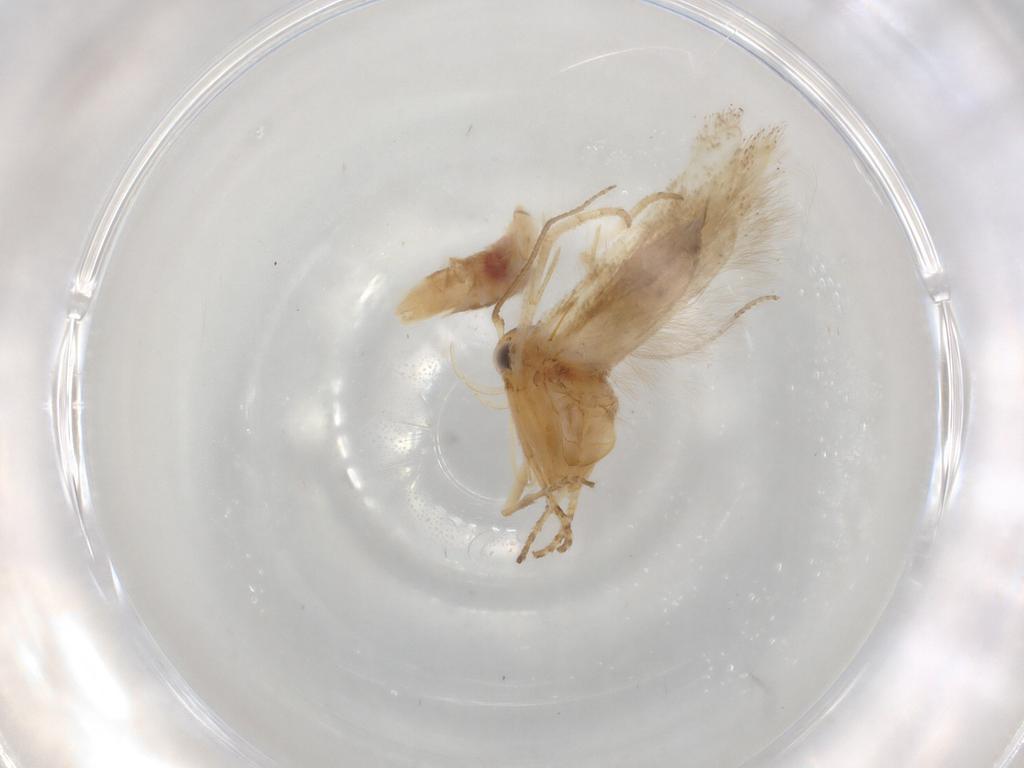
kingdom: Animalia
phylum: Arthropoda
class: Insecta
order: Lepidoptera
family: Gelechiidae
